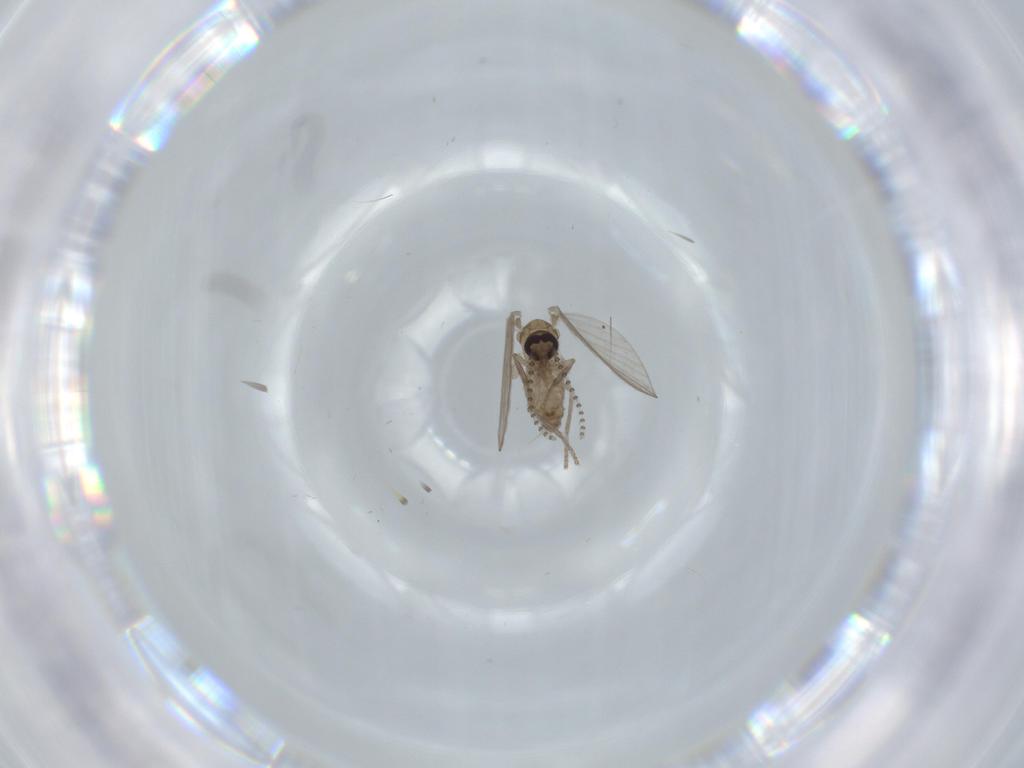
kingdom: Animalia
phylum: Arthropoda
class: Insecta
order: Diptera
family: Psychodidae
